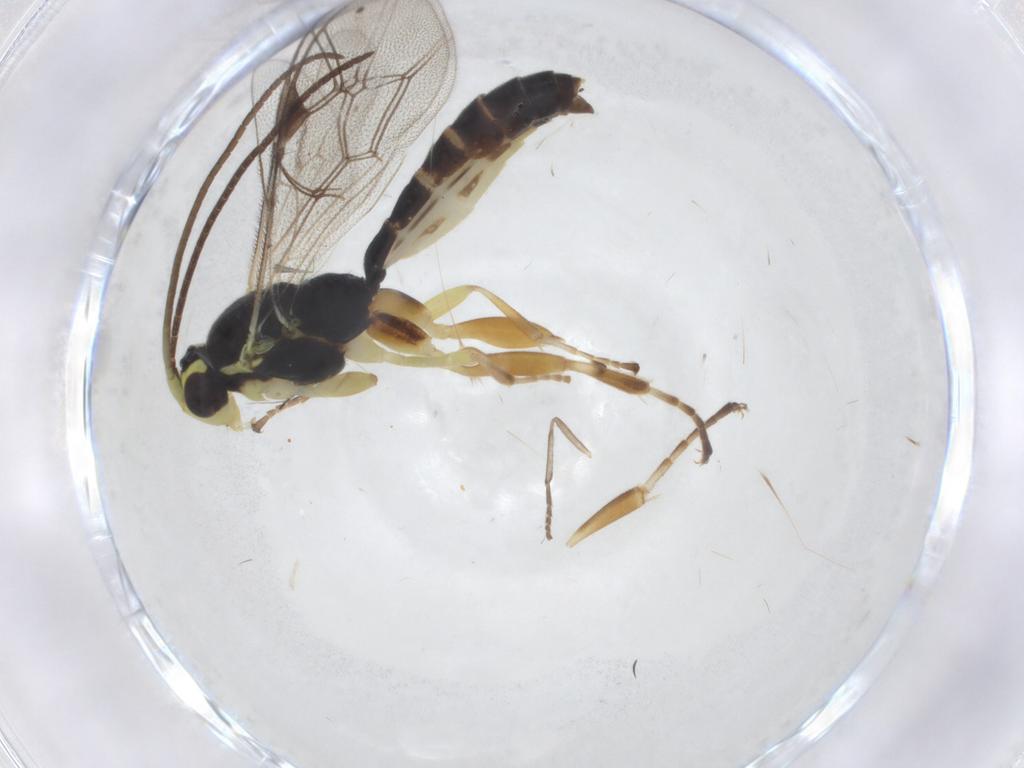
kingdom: Animalia
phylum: Arthropoda
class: Insecta
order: Hymenoptera
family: Ichneumonidae
